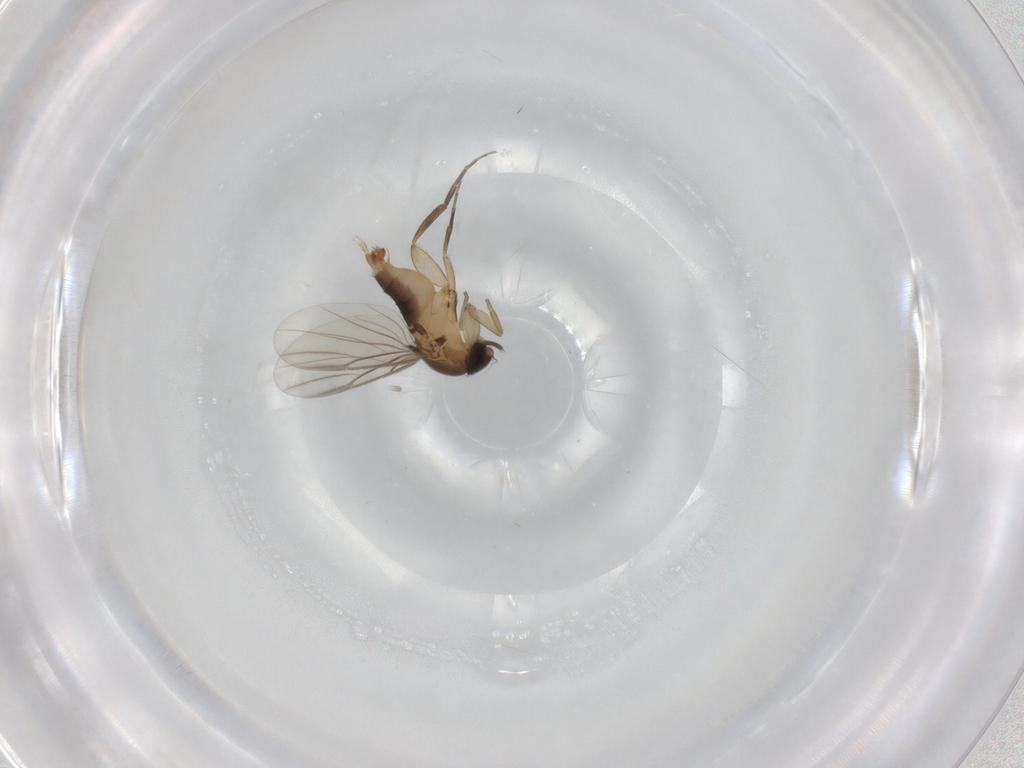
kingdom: Animalia
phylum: Arthropoda
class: Insecta
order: Diptera
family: Phoridae
